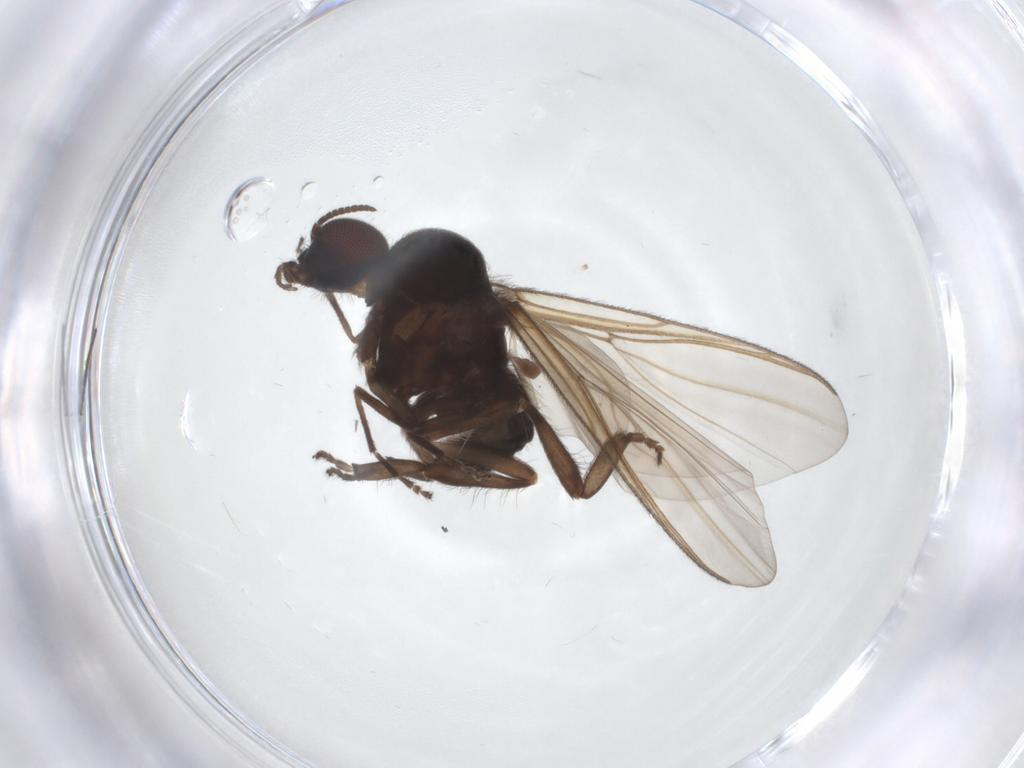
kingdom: Animalia
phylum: Arthropoda
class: Insecta
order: Diptera
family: Simuliidae
